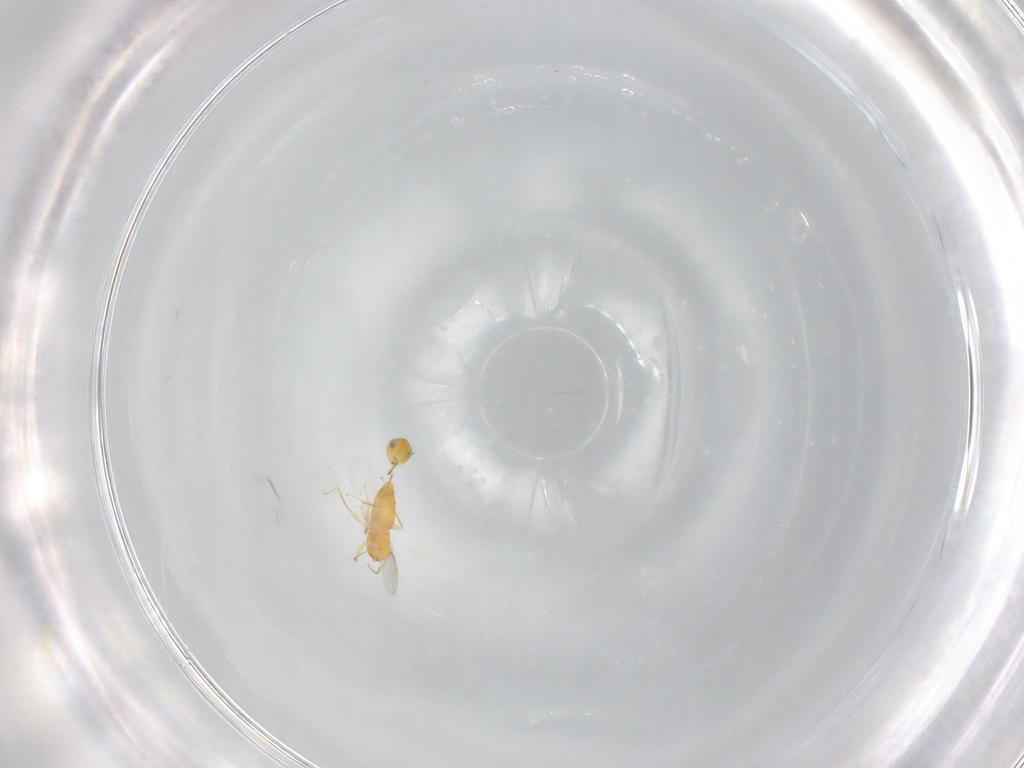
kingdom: Animalia
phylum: Arthropoda
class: Insecta
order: Hymenoptera
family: Aphelinidae
